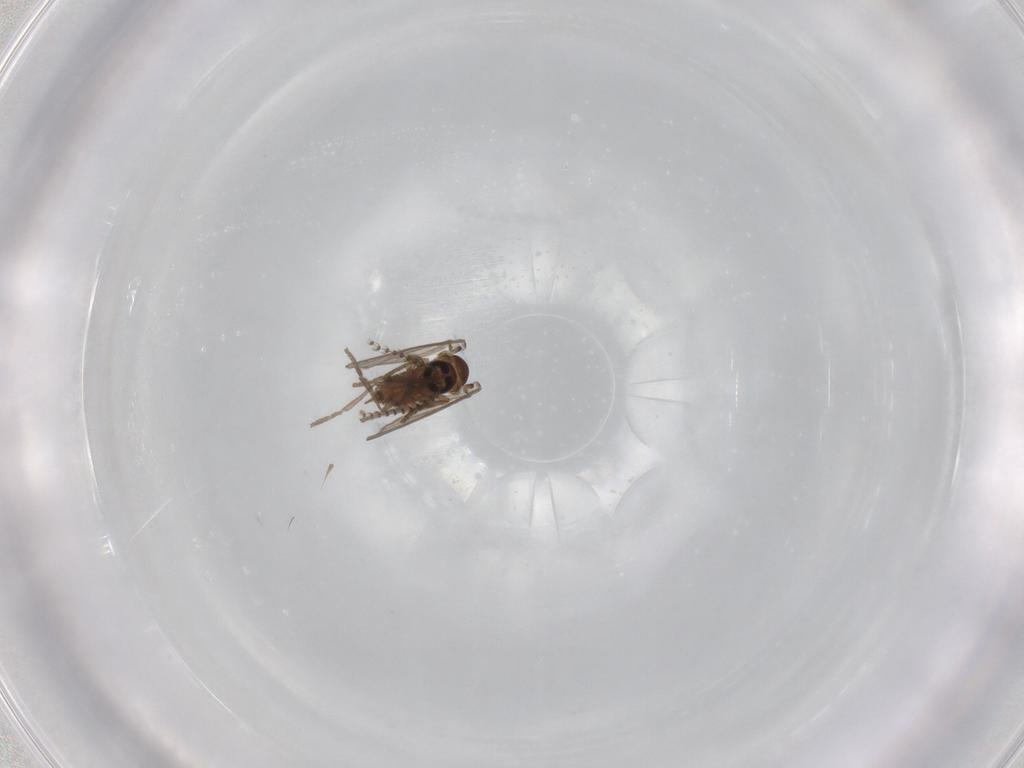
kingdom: Animalia
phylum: Arthropoda
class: Insecta
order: Diptera
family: Psychodidae
